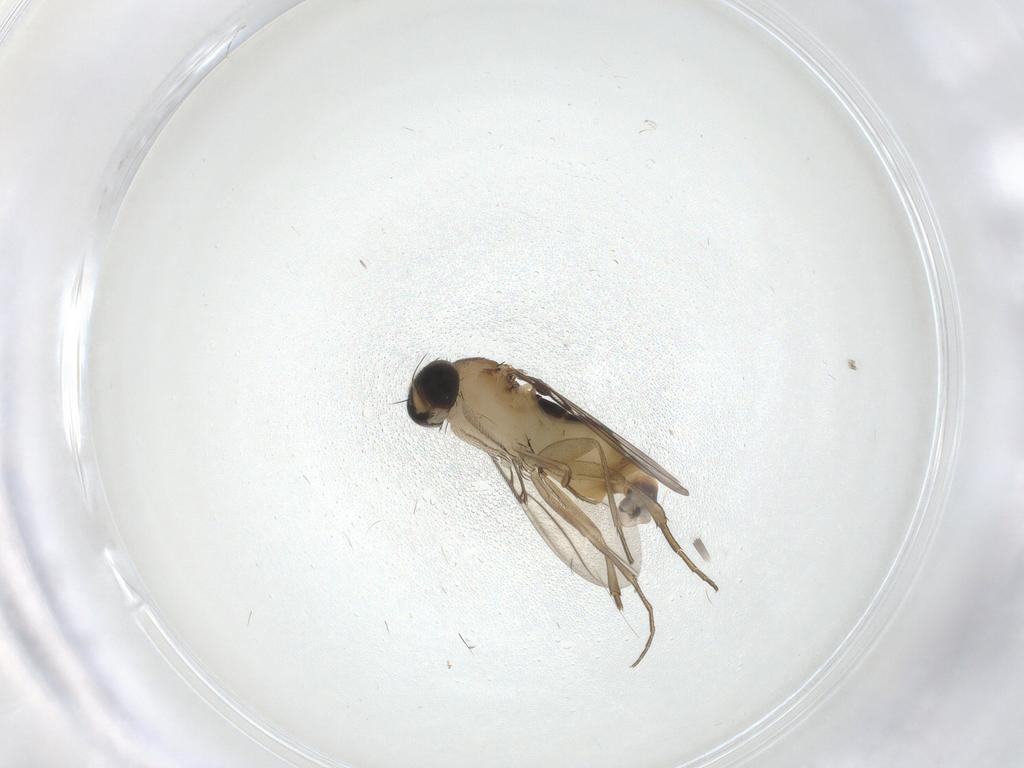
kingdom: Animalia
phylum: Arthropoda
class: Insecta
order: Diptera
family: Phoridae
